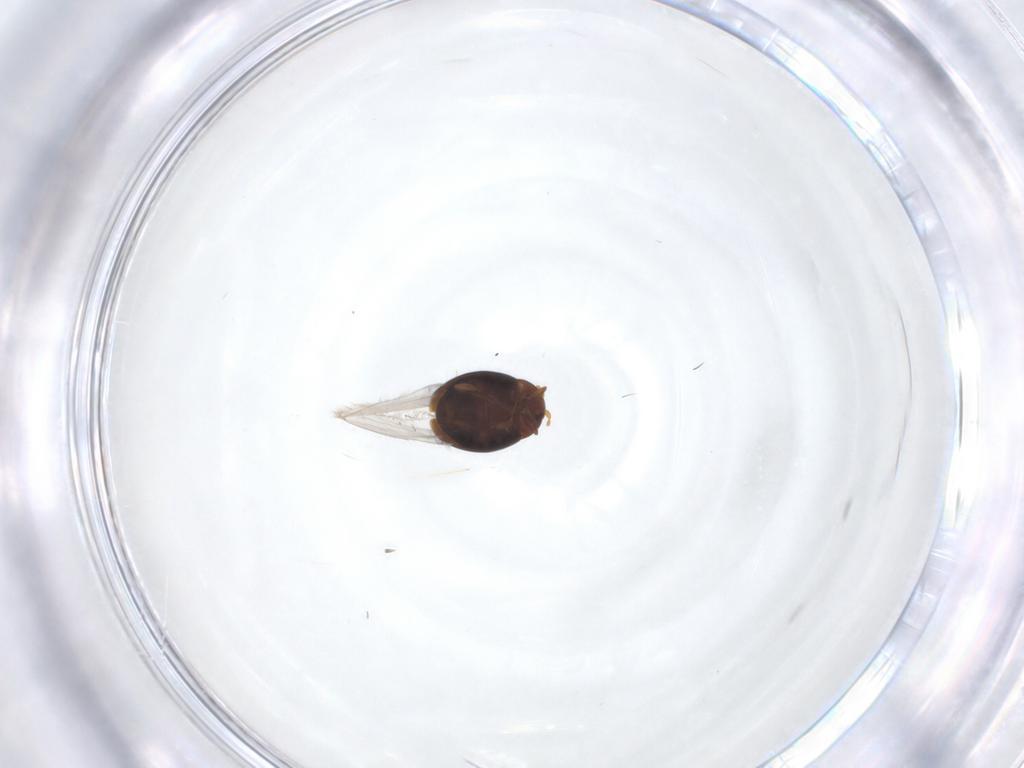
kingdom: Animalia
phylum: Arthropoda
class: Insecta
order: Coleoptera
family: Corylophidae
